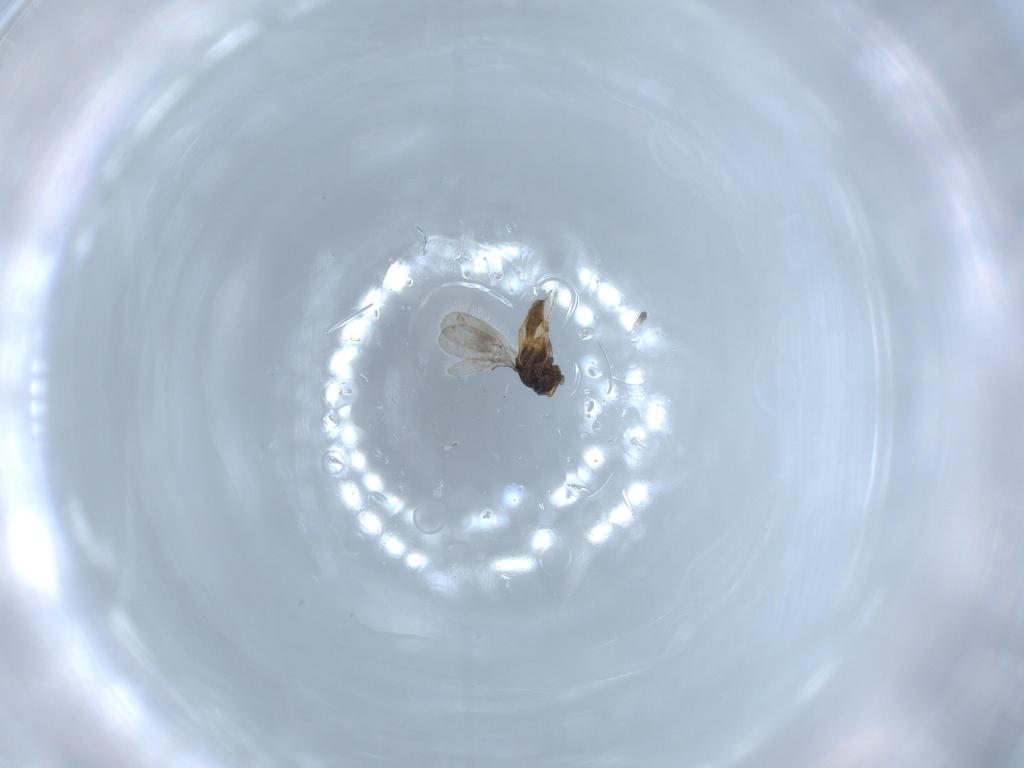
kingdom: Animalia
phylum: Arthropoda
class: Insecta
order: Hymenoptera
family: Scelionidae
